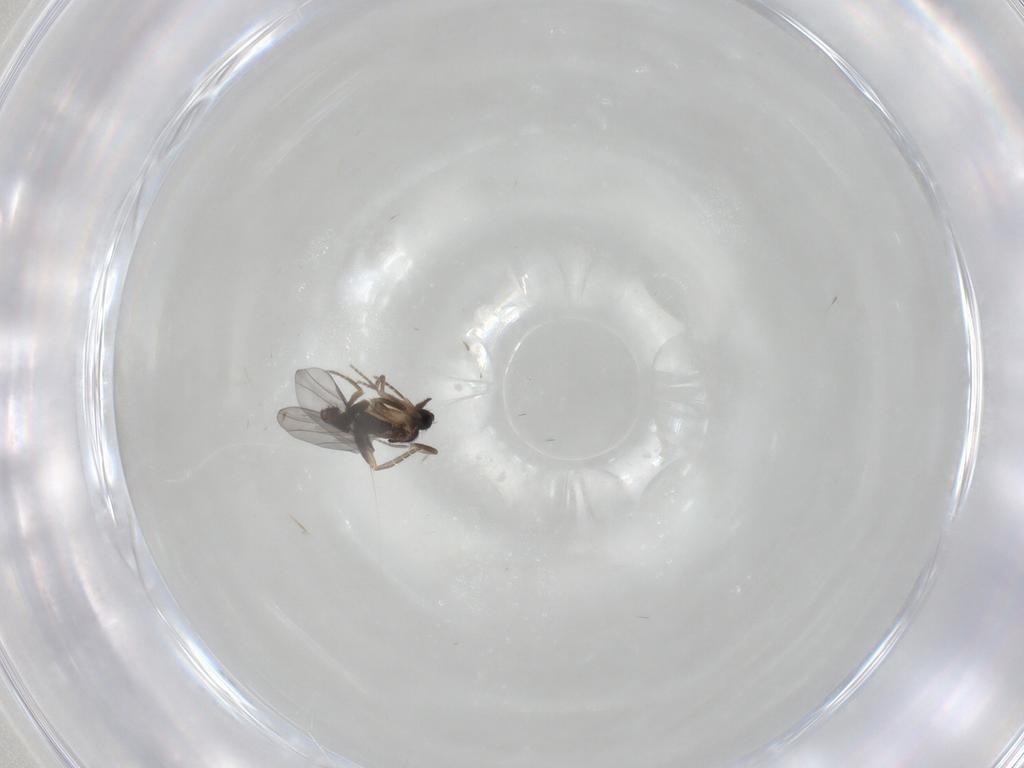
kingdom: Animalia
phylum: Arthropoda
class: Insecta
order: Diptera
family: Phoridae
